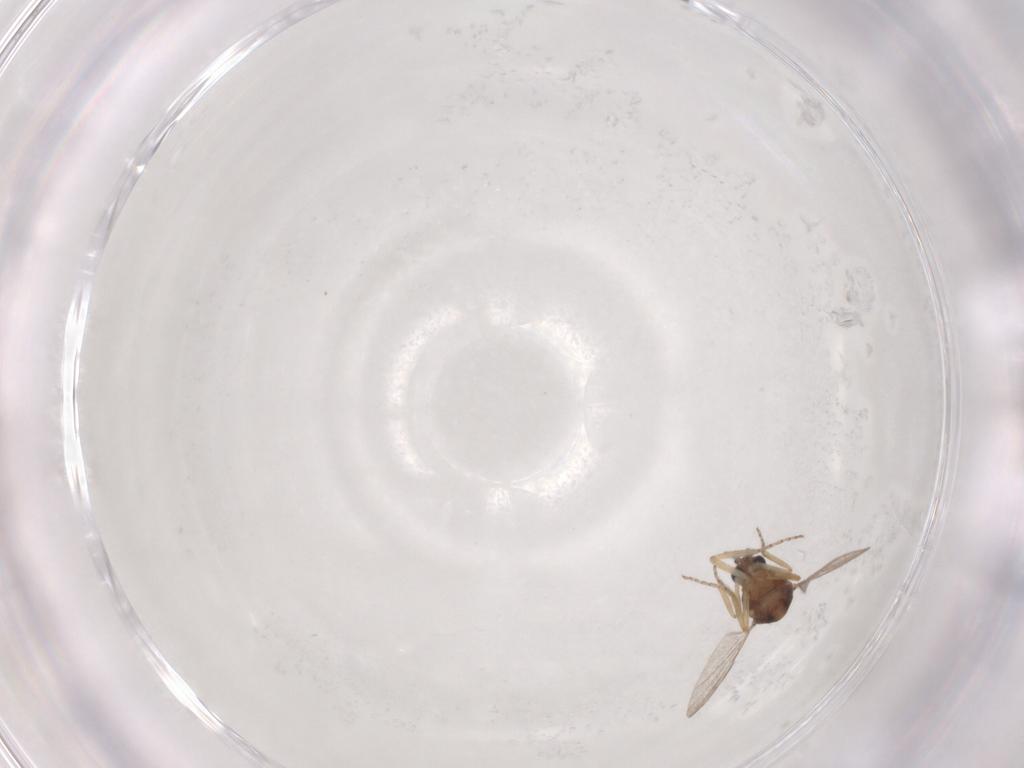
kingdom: Animalia
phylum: Arthropoda
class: Insecta
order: Diptera
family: Ceratopogonidae
